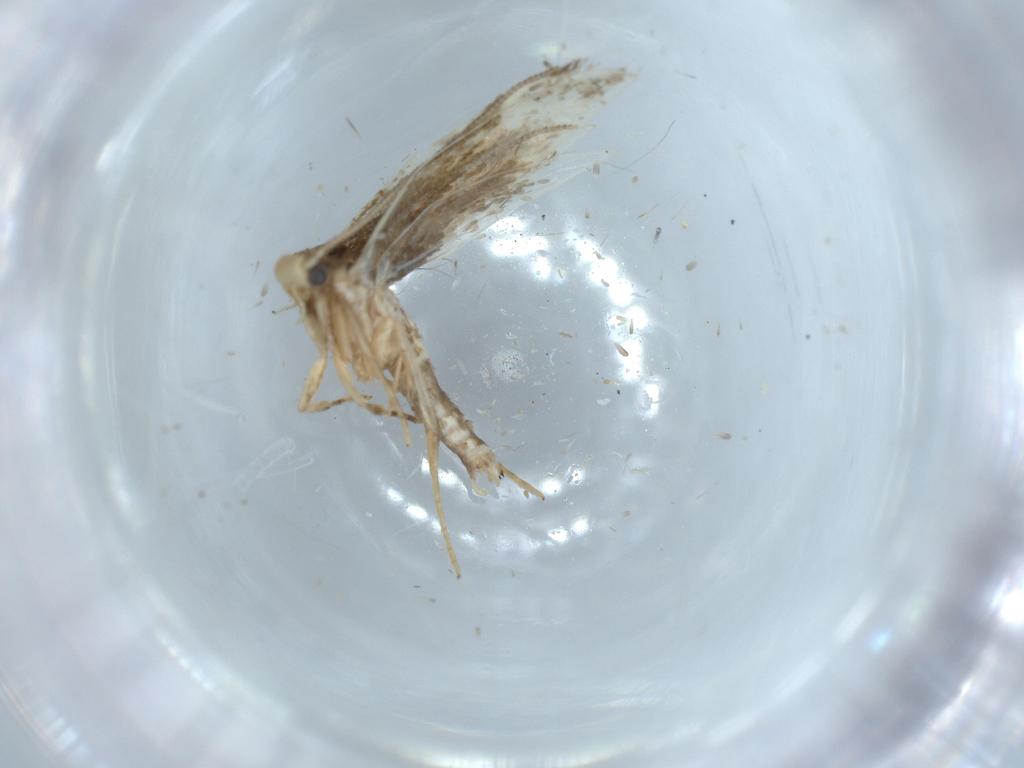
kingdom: Animalia
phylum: Arthropoda
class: Insecta
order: Lepidoptera
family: Tineidae
